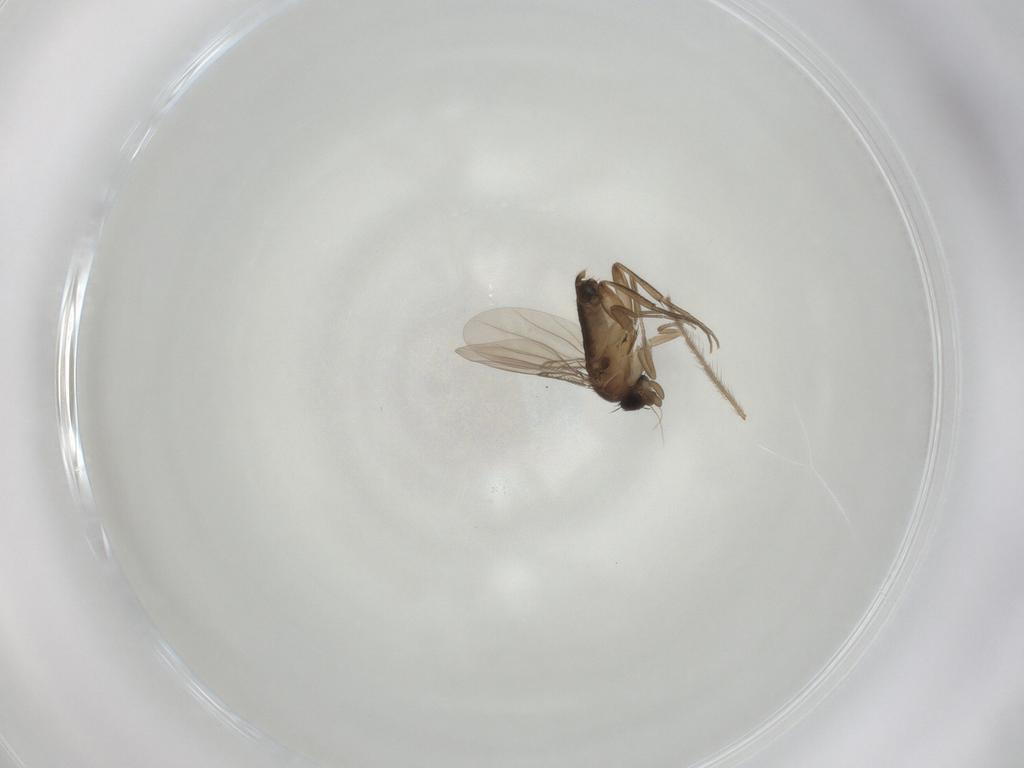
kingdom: Animalia
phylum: Arthropoda
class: Insecta
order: Diptera
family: Phoridae
